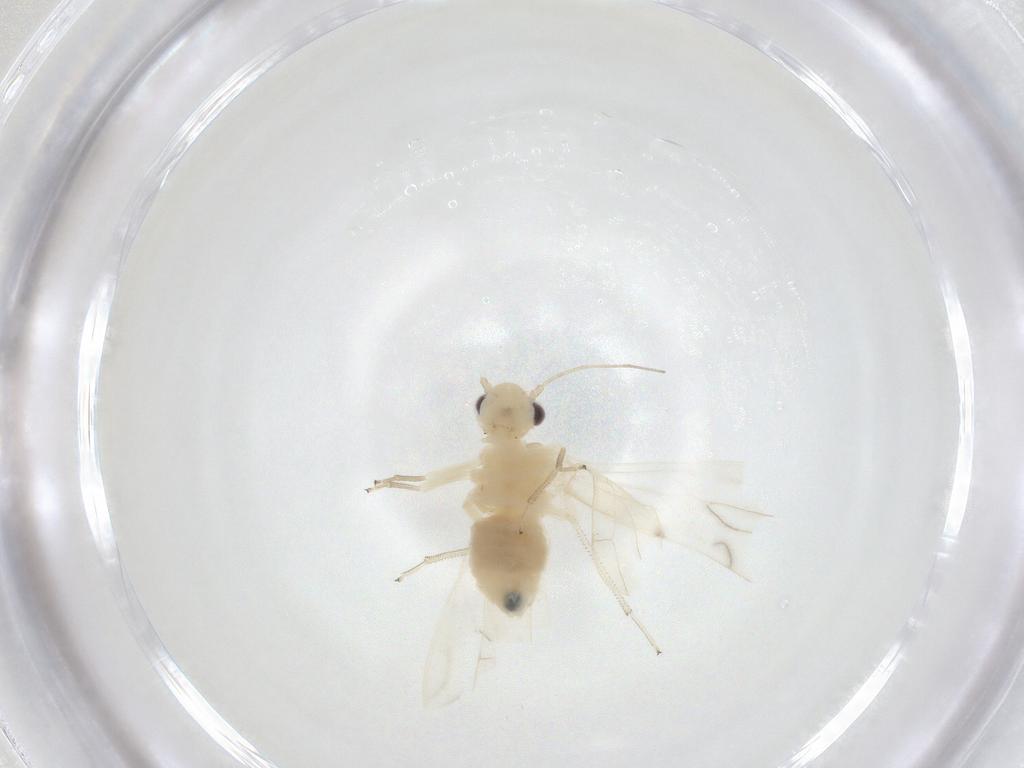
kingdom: Animalia
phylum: Arthropoda
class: Insecta
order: Psocodea
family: Caeciliusidae
